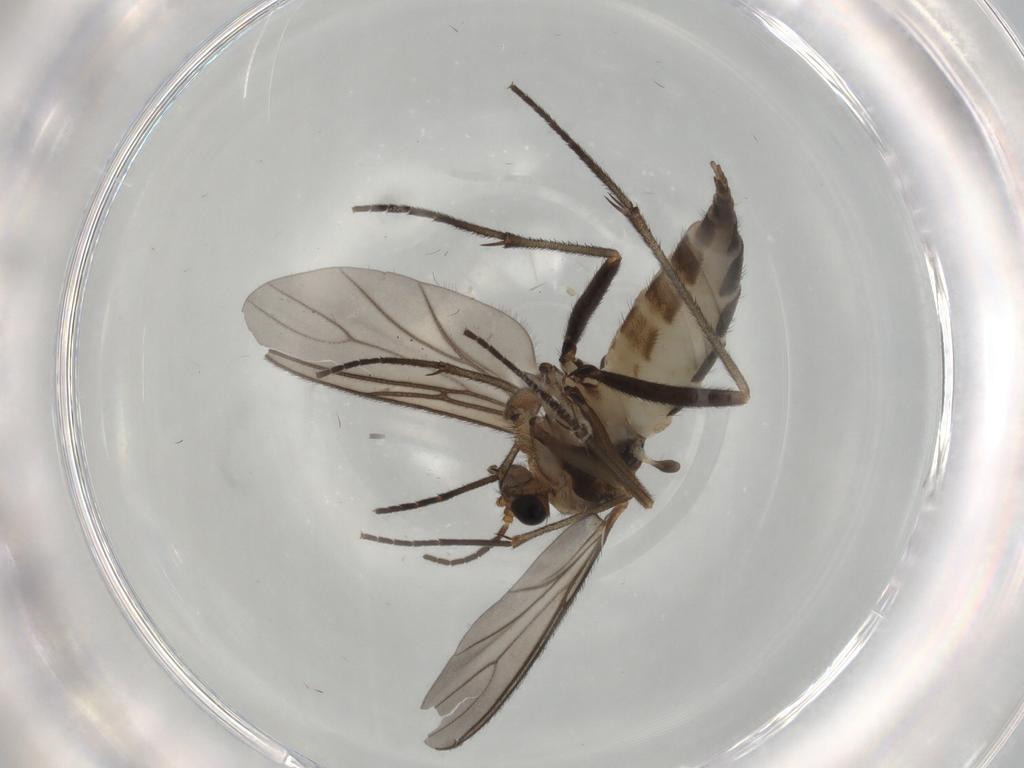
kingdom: Animalia
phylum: Arthropoda
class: Insecta
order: Diptera
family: Sciaridae
